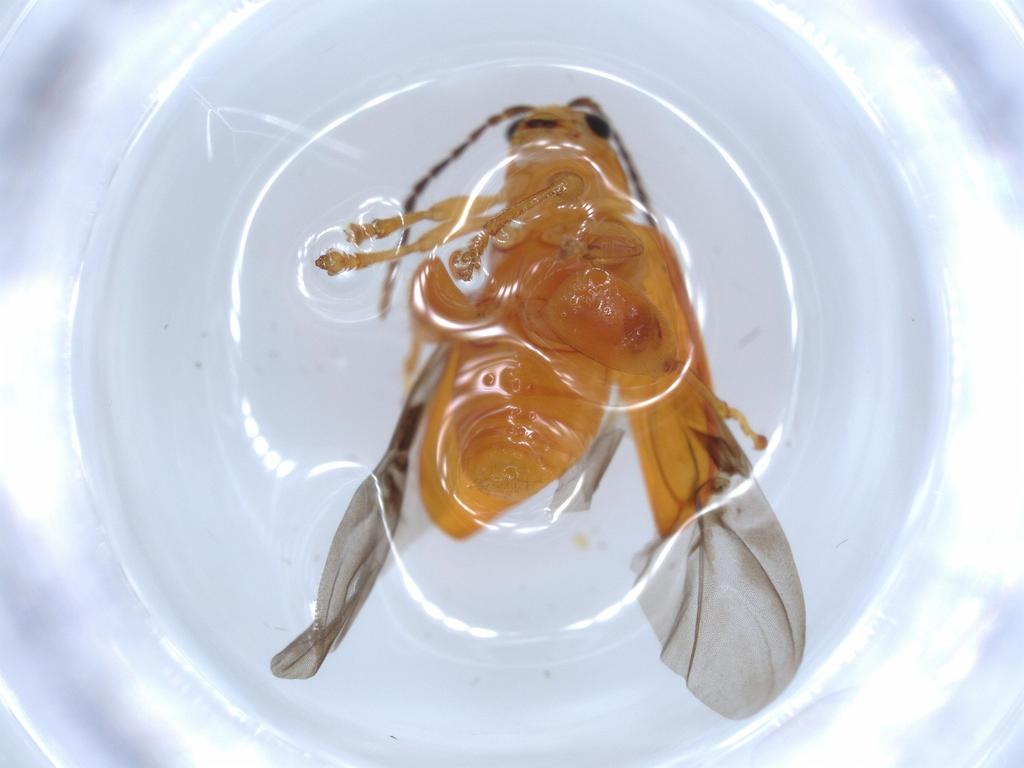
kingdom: Animalia
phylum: Arthropoda
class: Insecta
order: Coleoptera
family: Chrysomelidae
